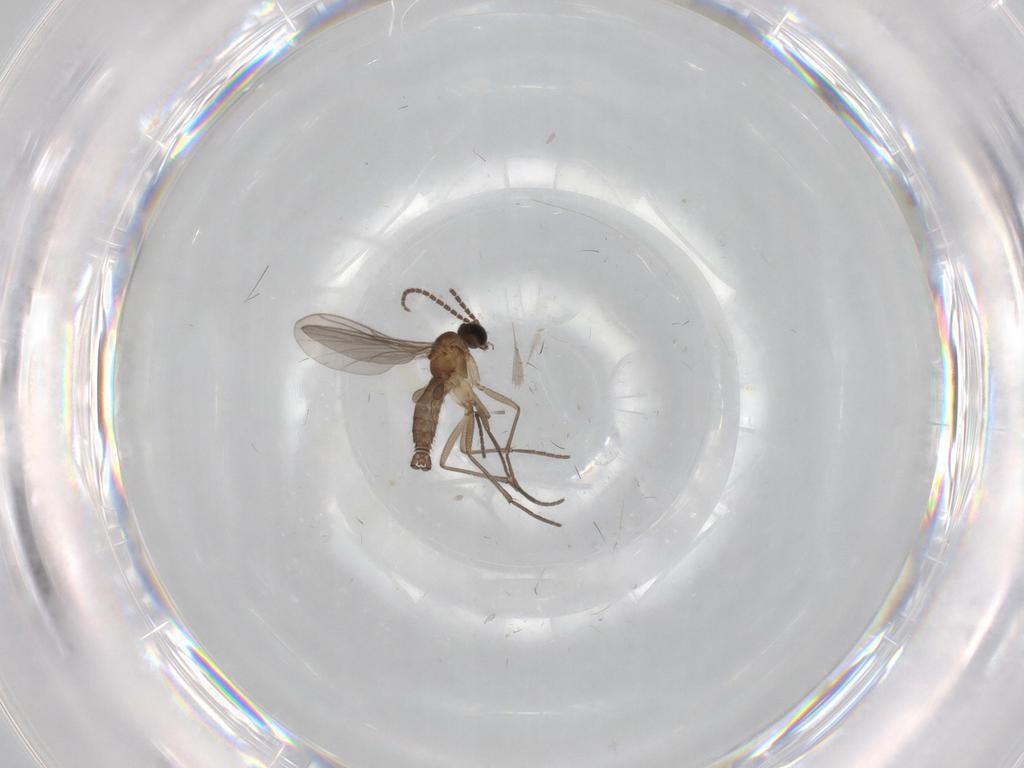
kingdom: Animalia
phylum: Arthropoda
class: Insecta
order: Diptera
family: Sciaridae
